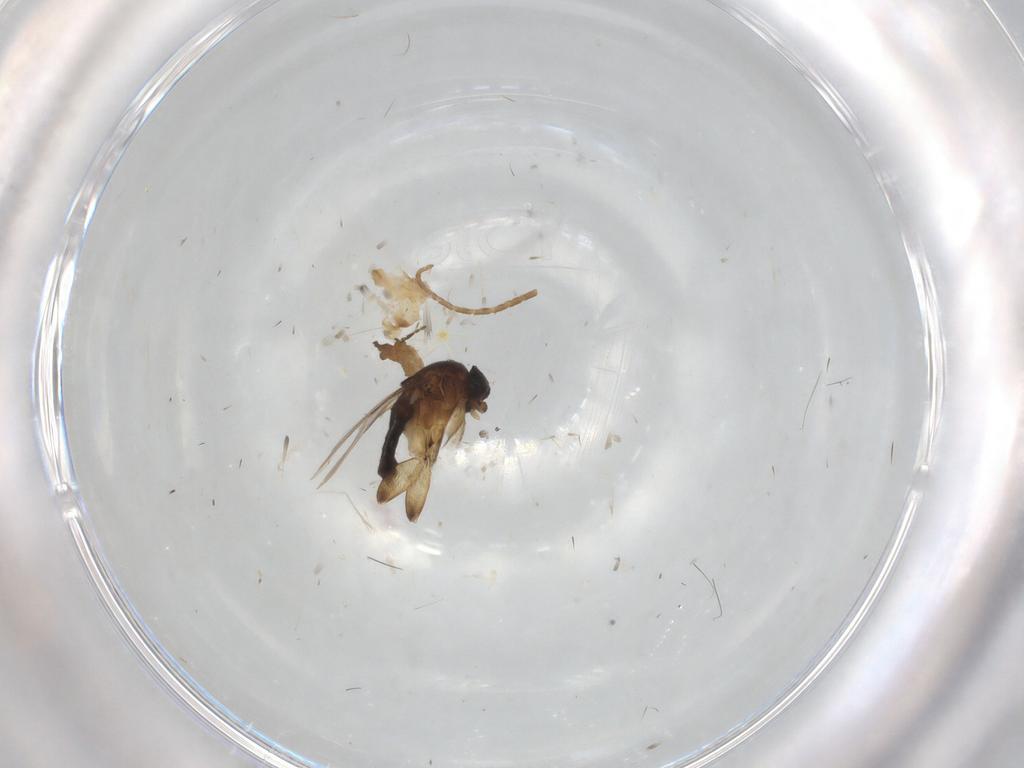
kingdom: Animalia
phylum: Arthropoda
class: Insecta
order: Diptera
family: Phoridae
